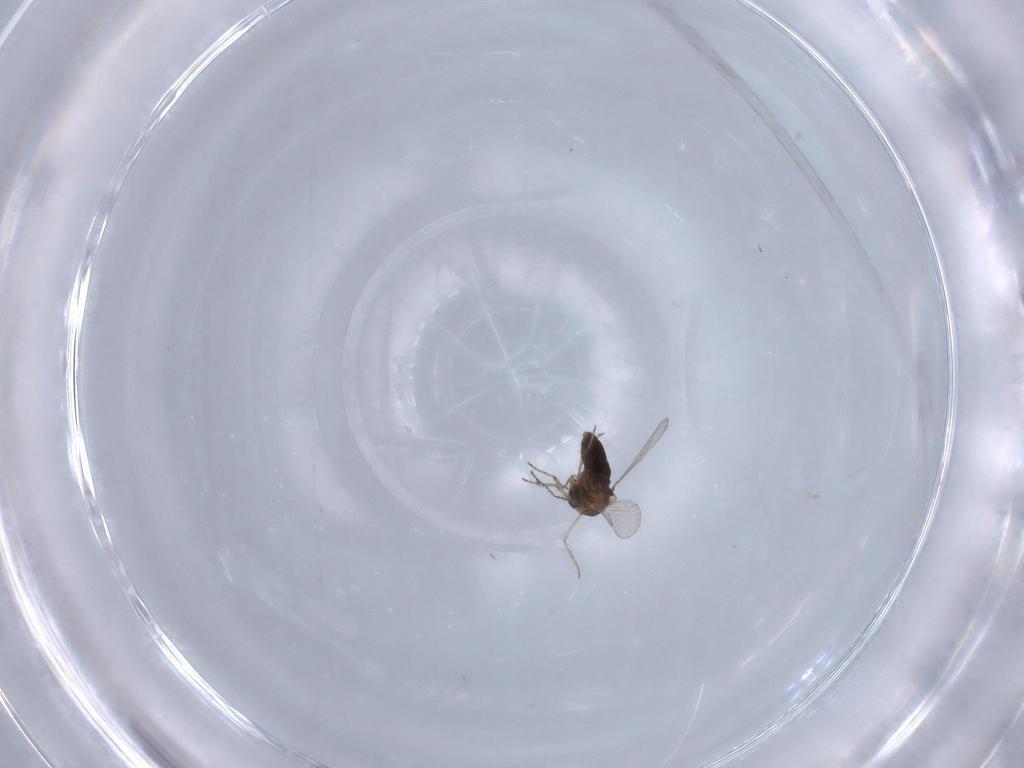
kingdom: Animalia
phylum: Arthropoda
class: Insecta
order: Diptera
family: Ceratopogonidae
